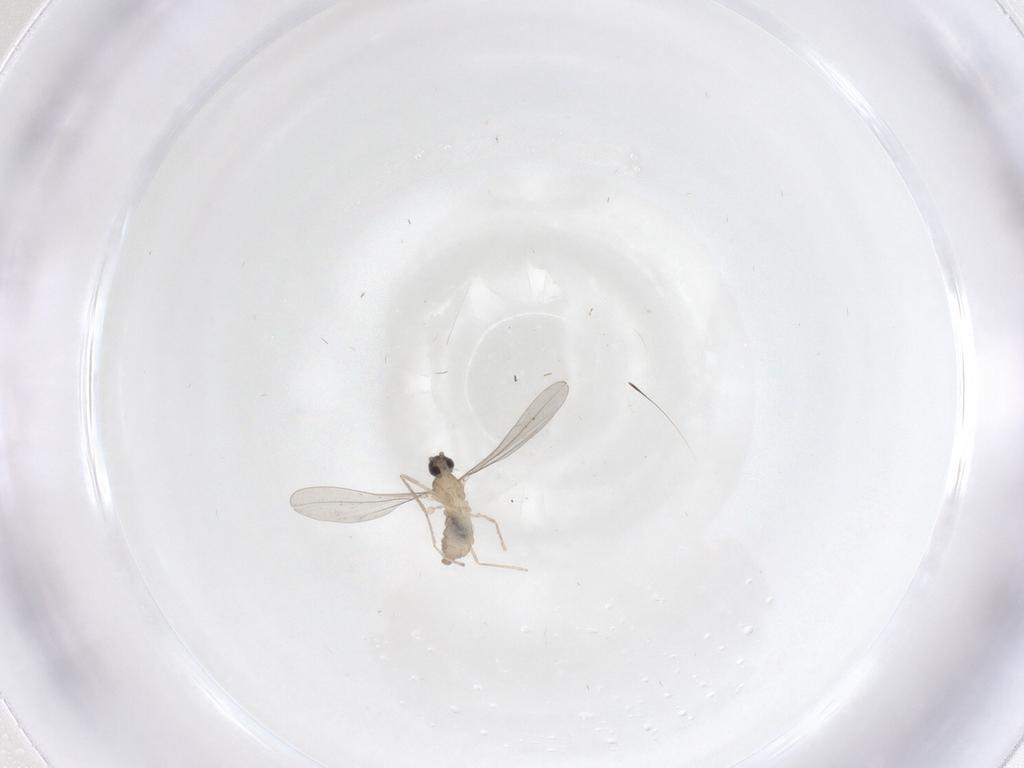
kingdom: Animalia
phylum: Arthropoda
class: Insecta
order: Diptera
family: Cecidomyiidae
